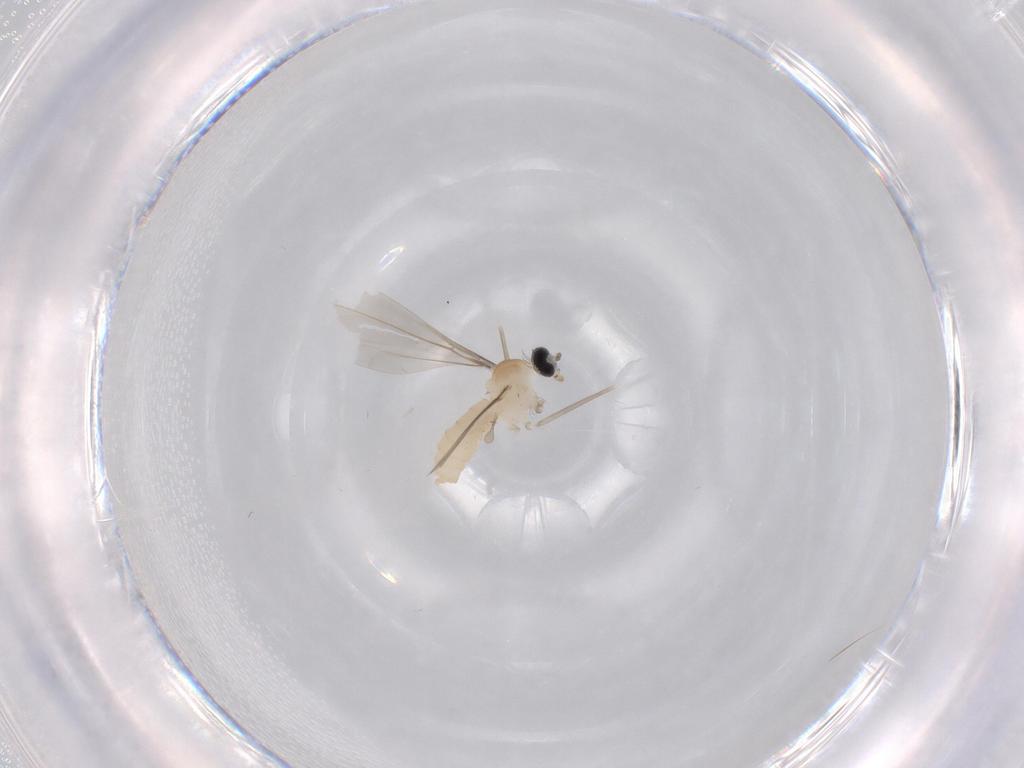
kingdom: Animalia
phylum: Arthropoda
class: Insecta
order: Diptera
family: Cecidomyiidae
